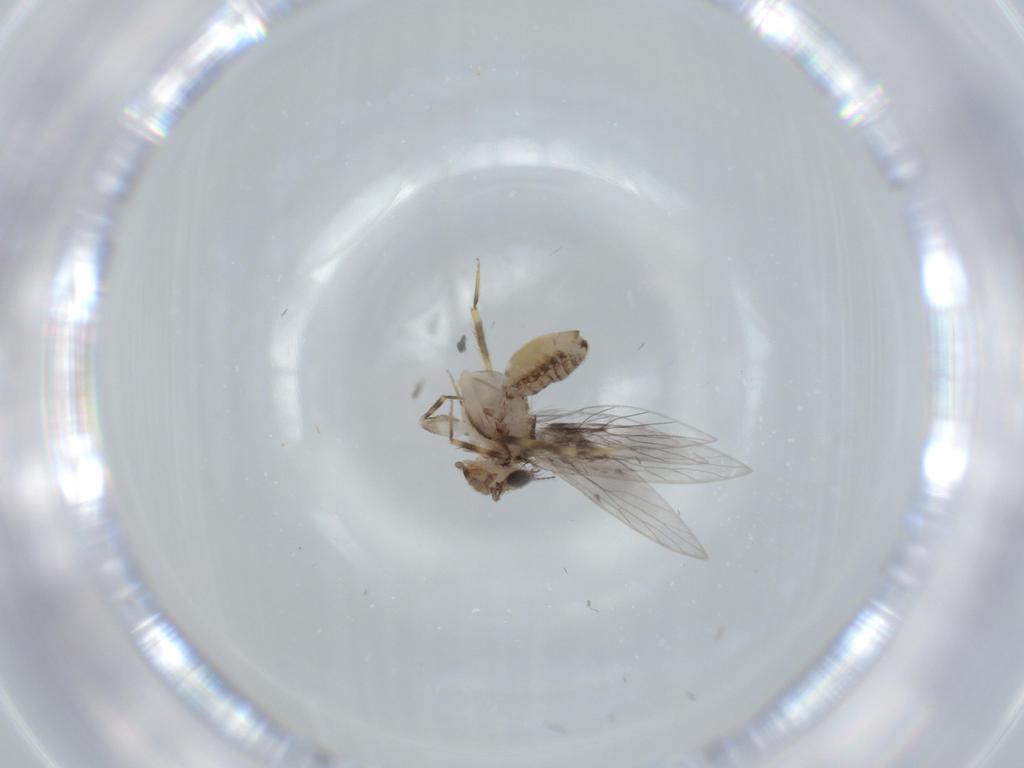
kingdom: Animalia
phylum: Arthropoda
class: Insecta
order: Psocodea
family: Lepidopsocidae
